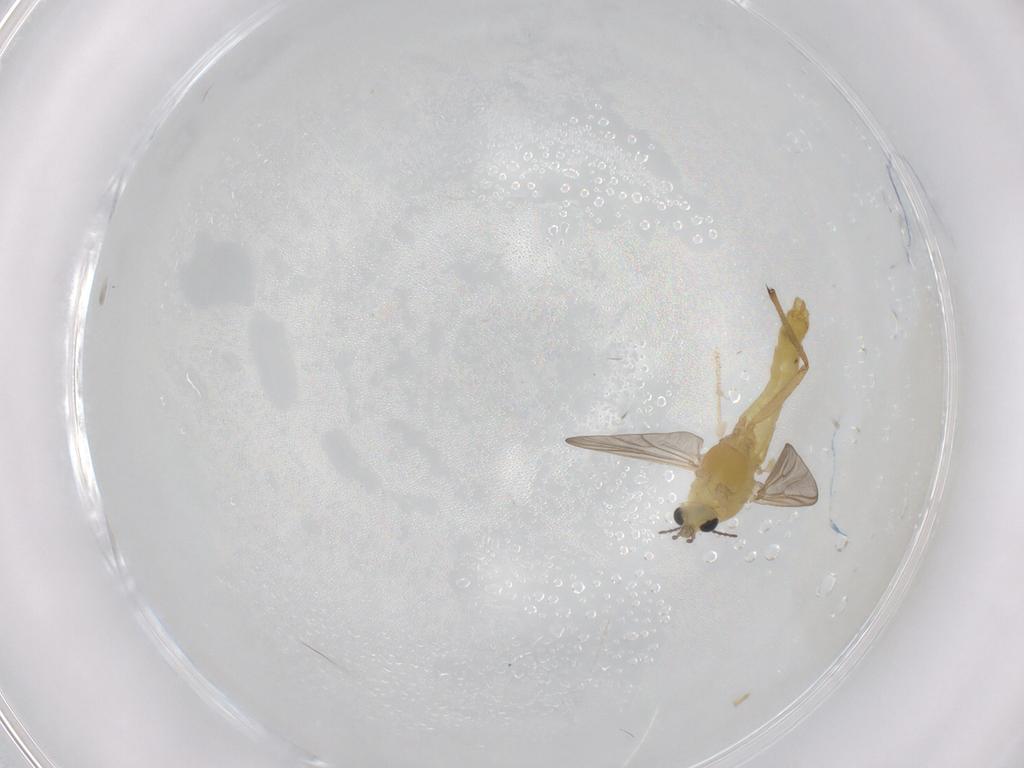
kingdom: Animalia
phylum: Arthropoda
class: Insecta
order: Diptera
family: Chironomidae
